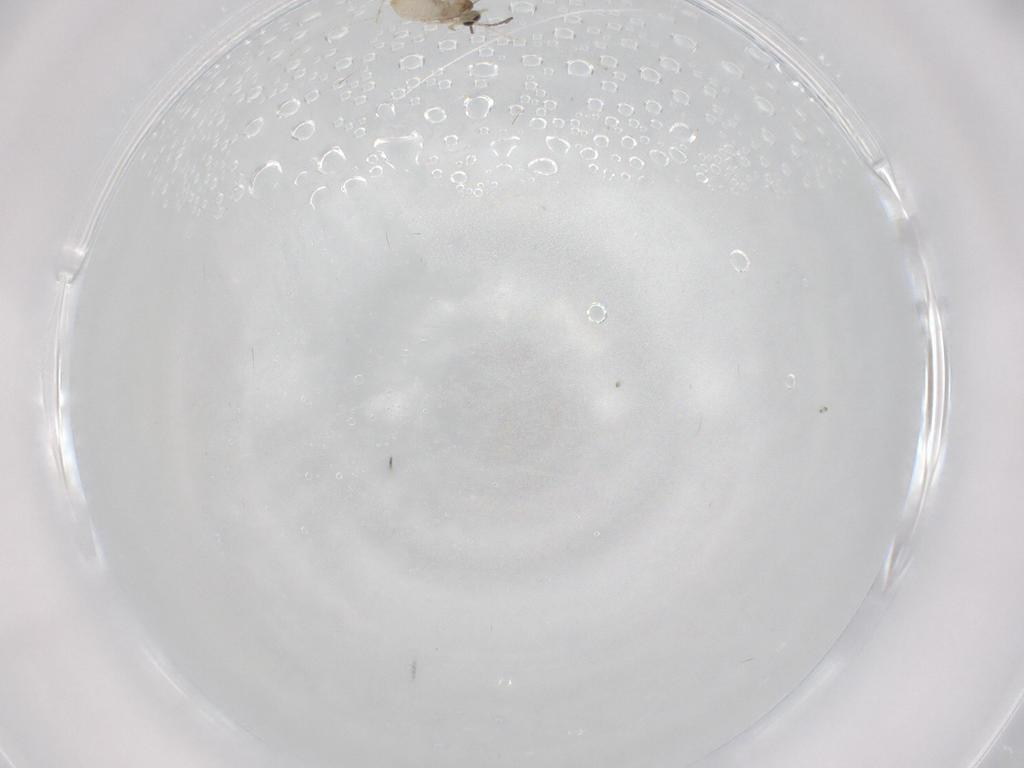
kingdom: Animalia
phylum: Arthropoda
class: Insecta
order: Diptera
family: Cecidomyiidae
